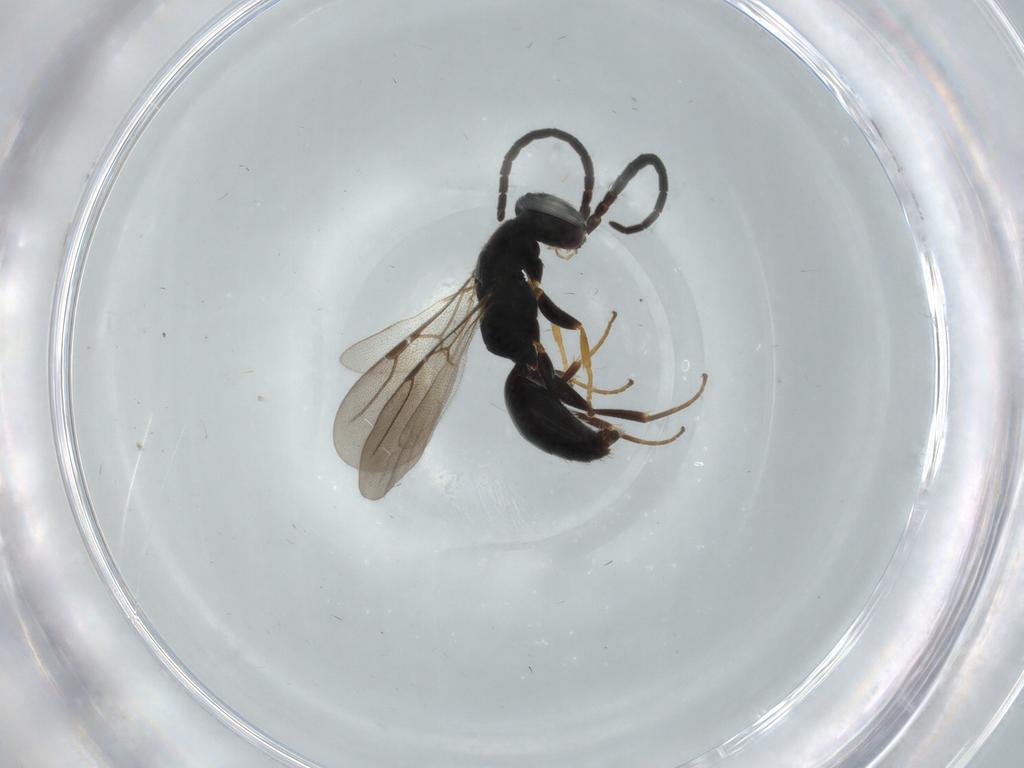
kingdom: Animalia
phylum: Arthropoda
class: Insecta
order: Hymenoptera
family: Bethylidae
